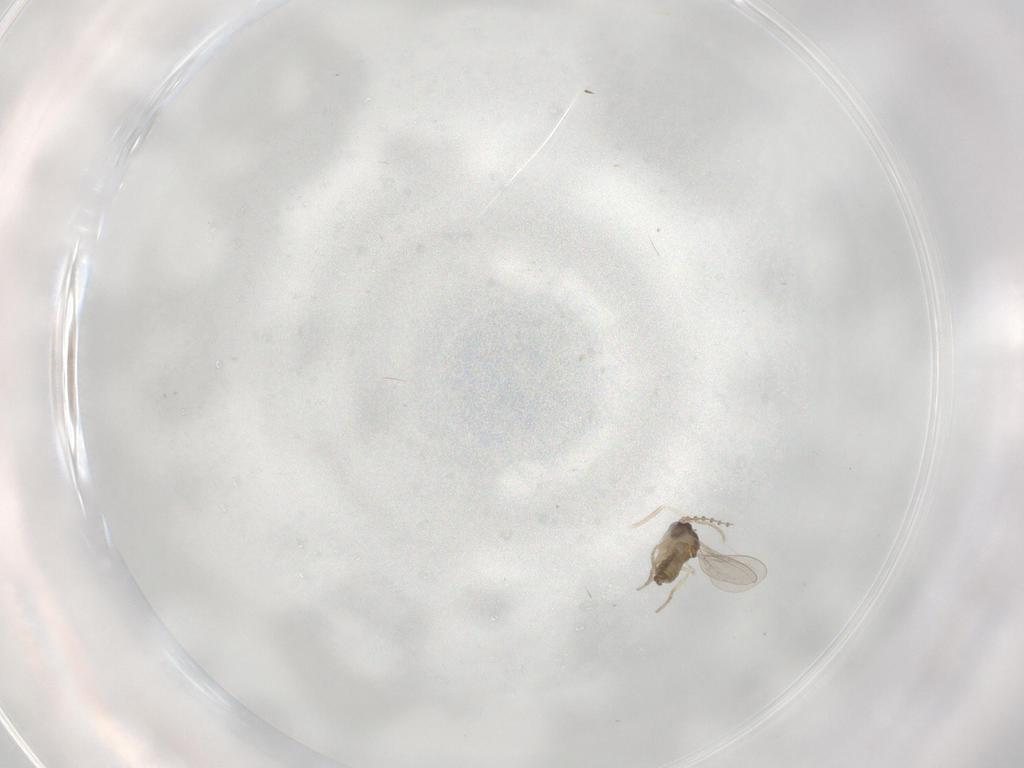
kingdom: Animalia
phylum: Arthropoda
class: Insecta
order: Diptera
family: Cecidomyiidae
